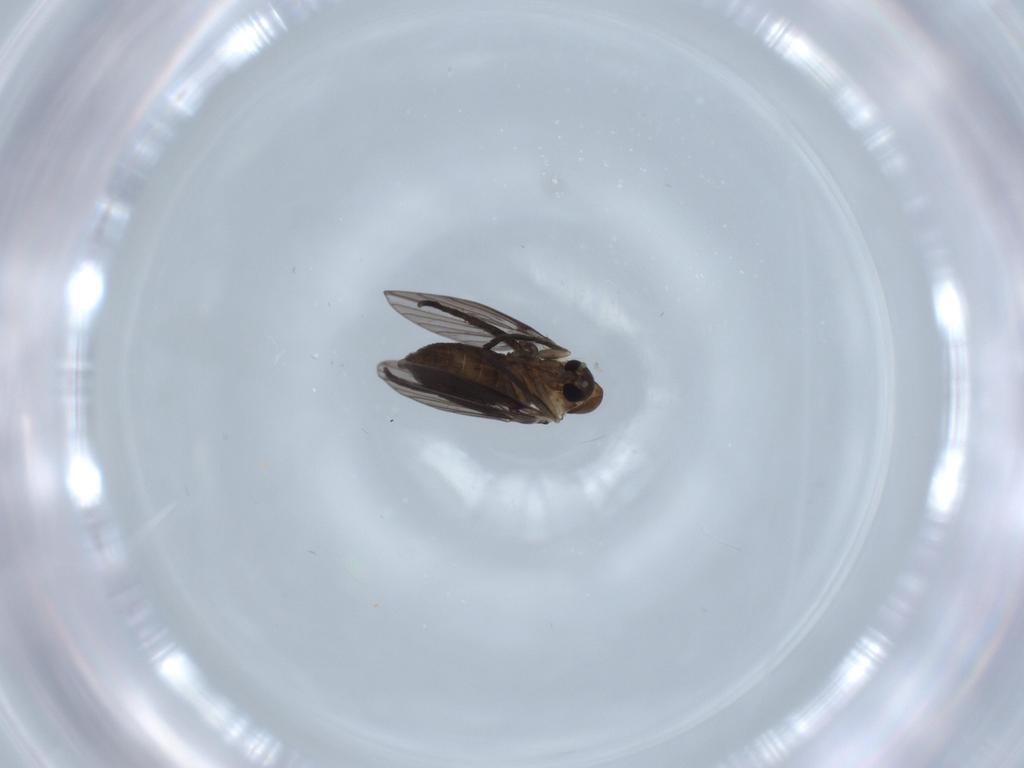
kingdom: Animalia
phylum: Arthropoda
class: Insecta
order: Diptera
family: Psychodidae
